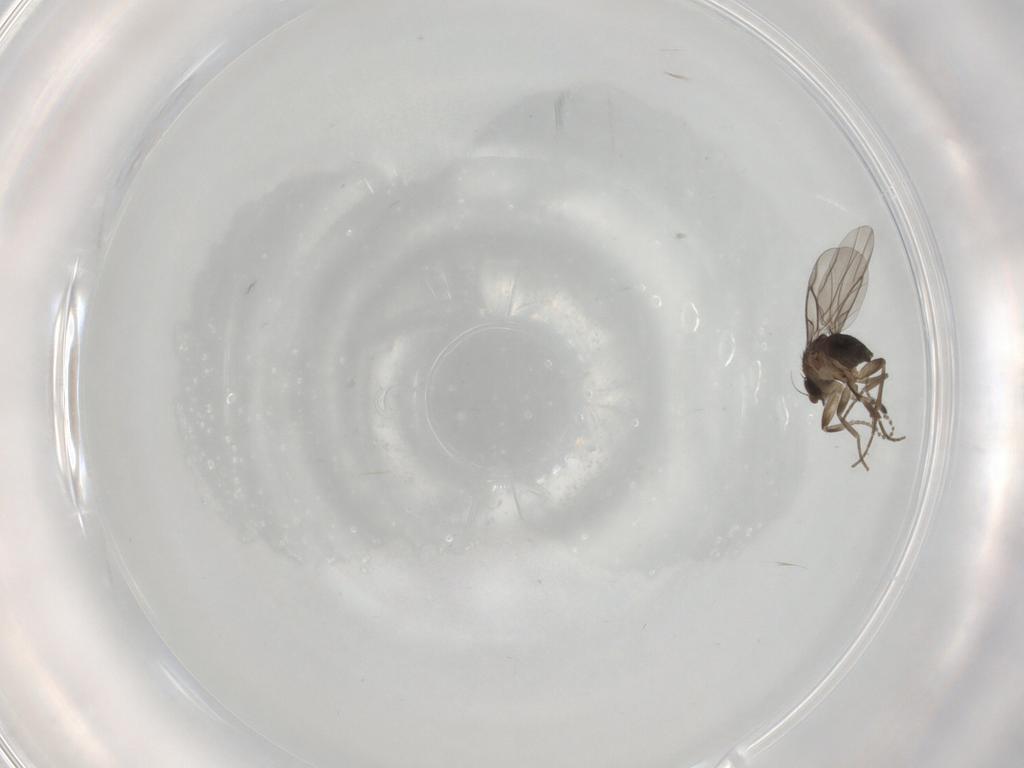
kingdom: Animalia
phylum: Arthropoda
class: Insecta
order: Diptera
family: Cecidomyiidae
